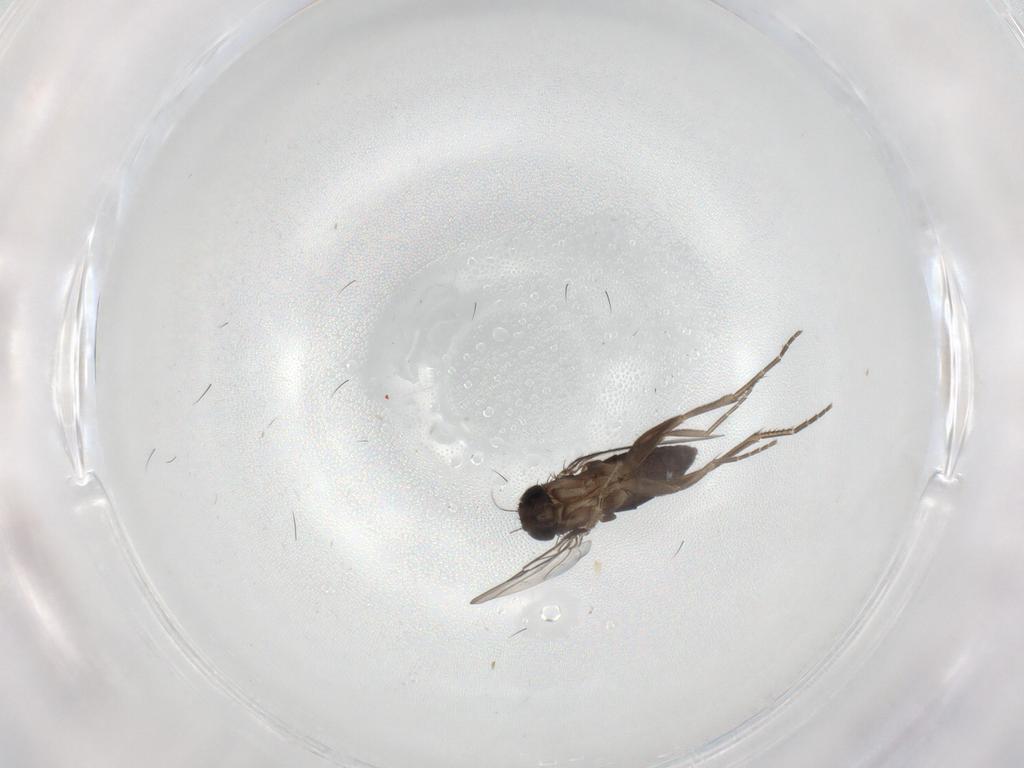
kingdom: Animalia
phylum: Arthropoda
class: Insecta
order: Diptera
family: Phoridae
